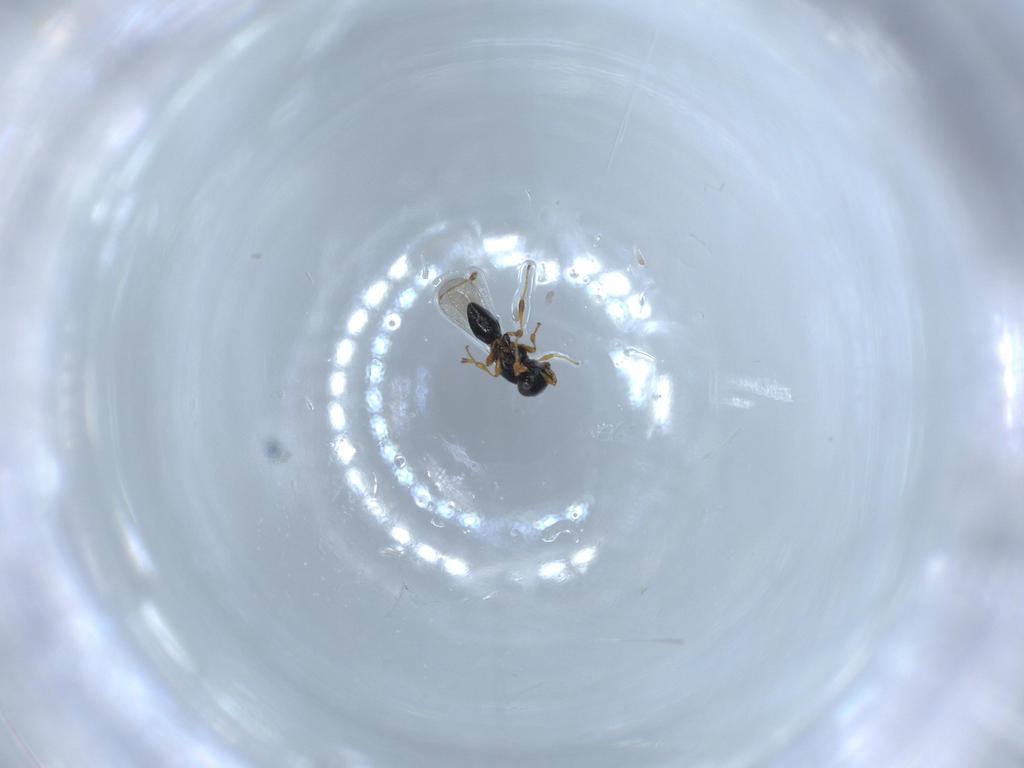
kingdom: Animalia
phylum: Arthropoda
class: Insecta
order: Hymenoptera
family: Platygastridae
